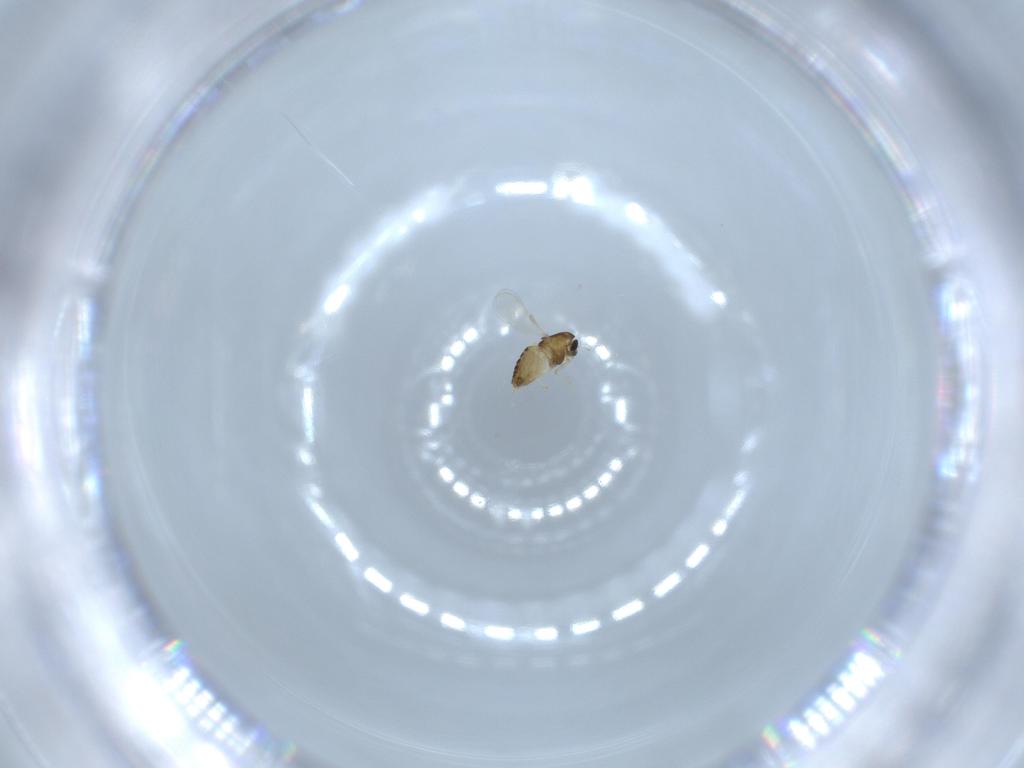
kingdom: Animalia
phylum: Arthropoda
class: Insecta
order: Diptera
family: Chironomidae
